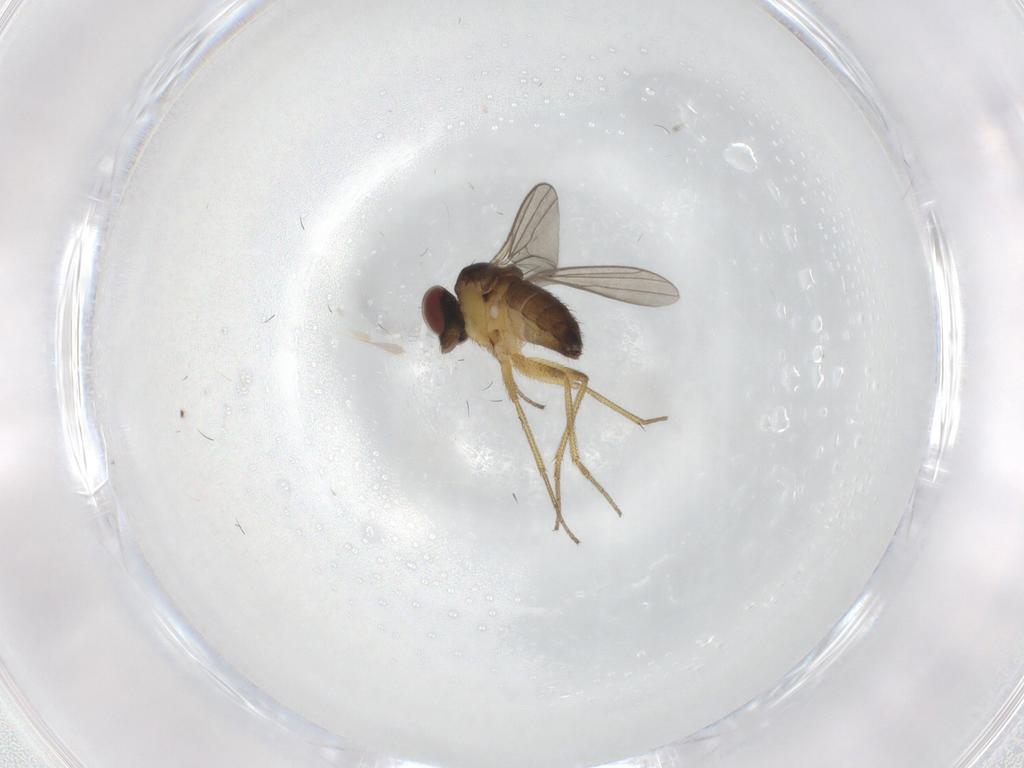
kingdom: Animalia
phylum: Arthropoda
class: Insecta
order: Diptera
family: Dolichopodidae
